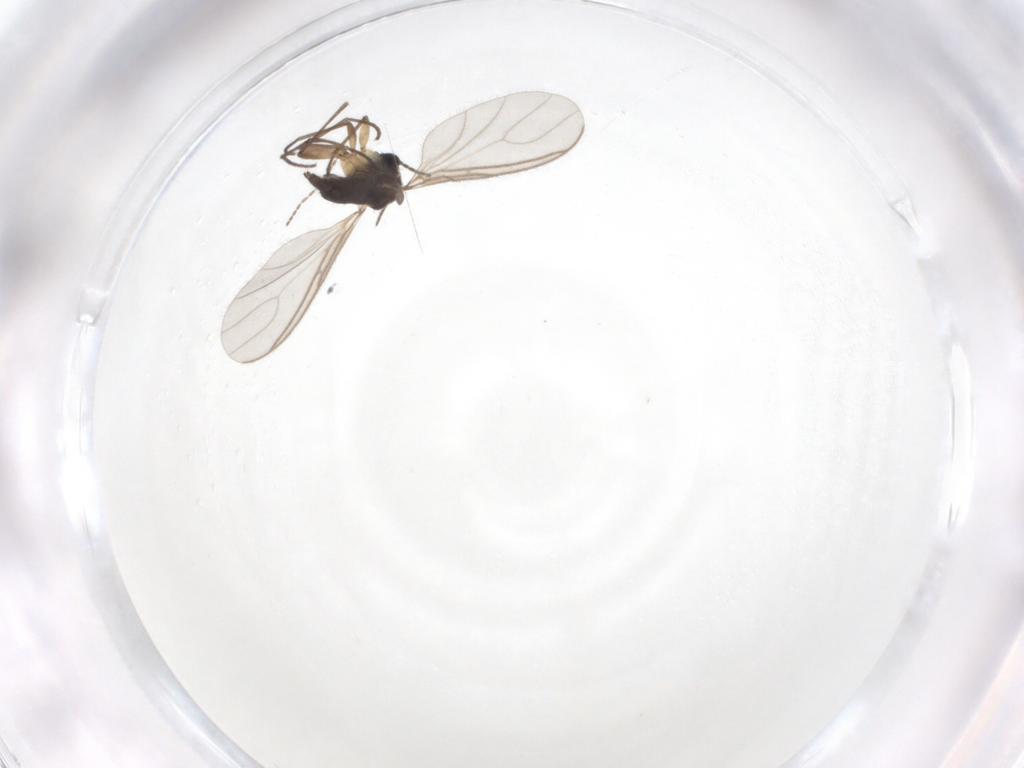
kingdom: Animalia
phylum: Arthropoda
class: Insecta
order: Diptera
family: Sciaridae
